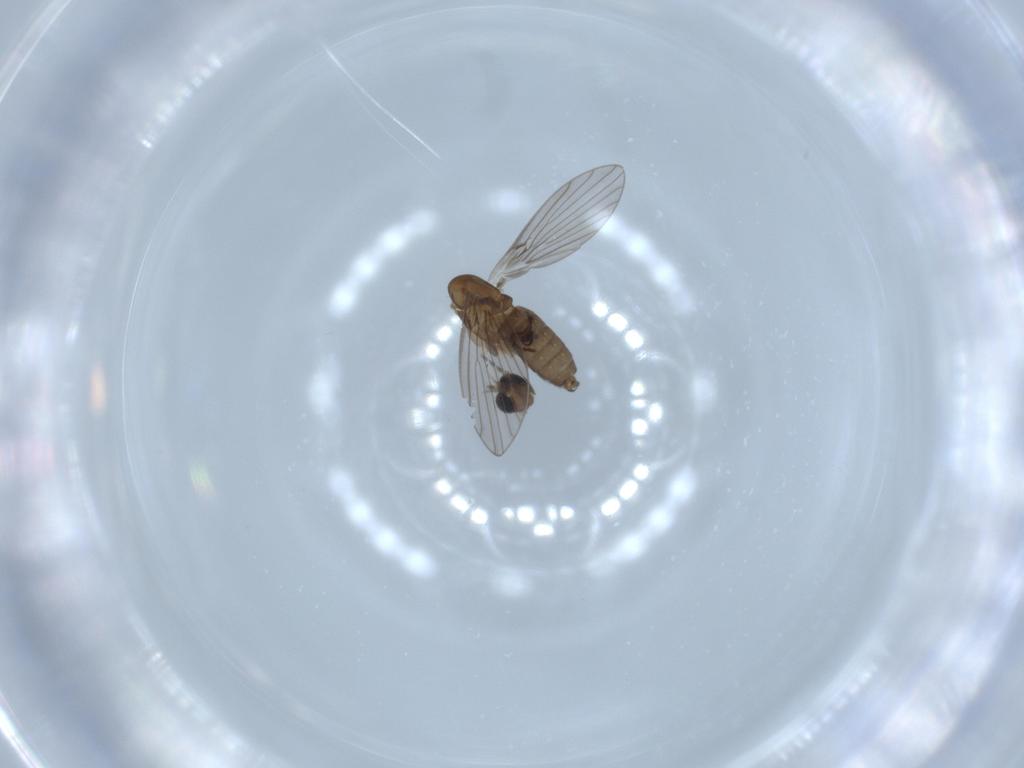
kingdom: Animalia
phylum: Arthropoda
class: Insecta
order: Diptera
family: Psychodidae
